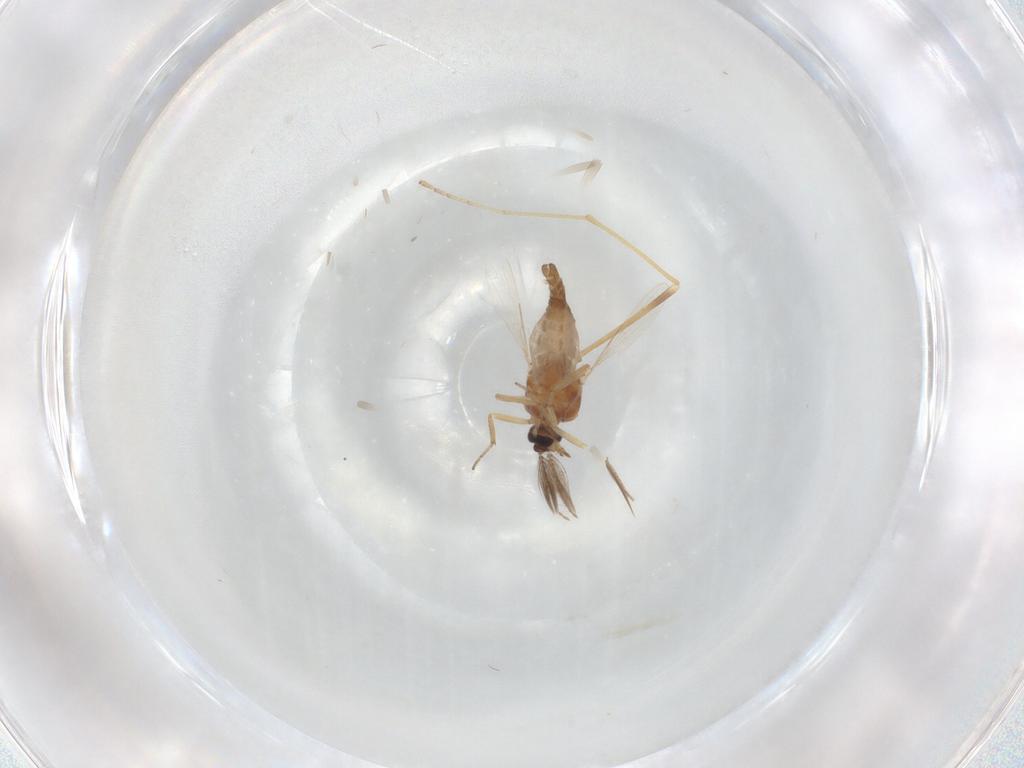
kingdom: Animalia
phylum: Arthropoda
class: Insecta
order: Diptera
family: Ceratopogonidae
